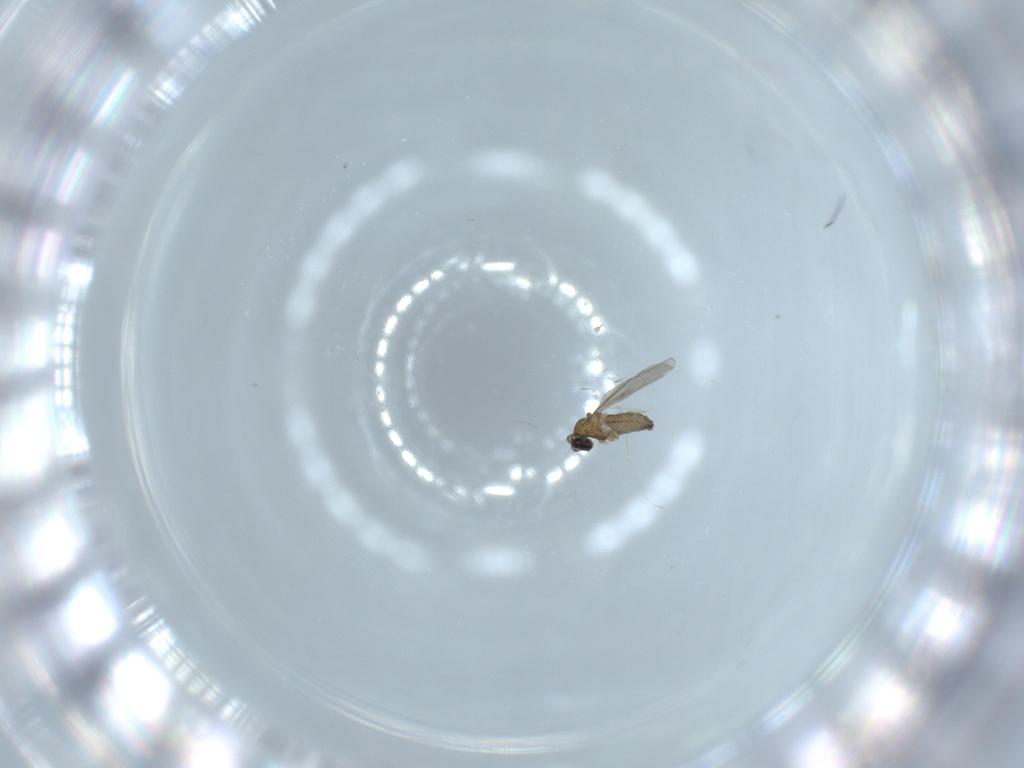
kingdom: Animalia
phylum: Arthropoda
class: Insecta
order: Diptera
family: Cecidomyiidae
